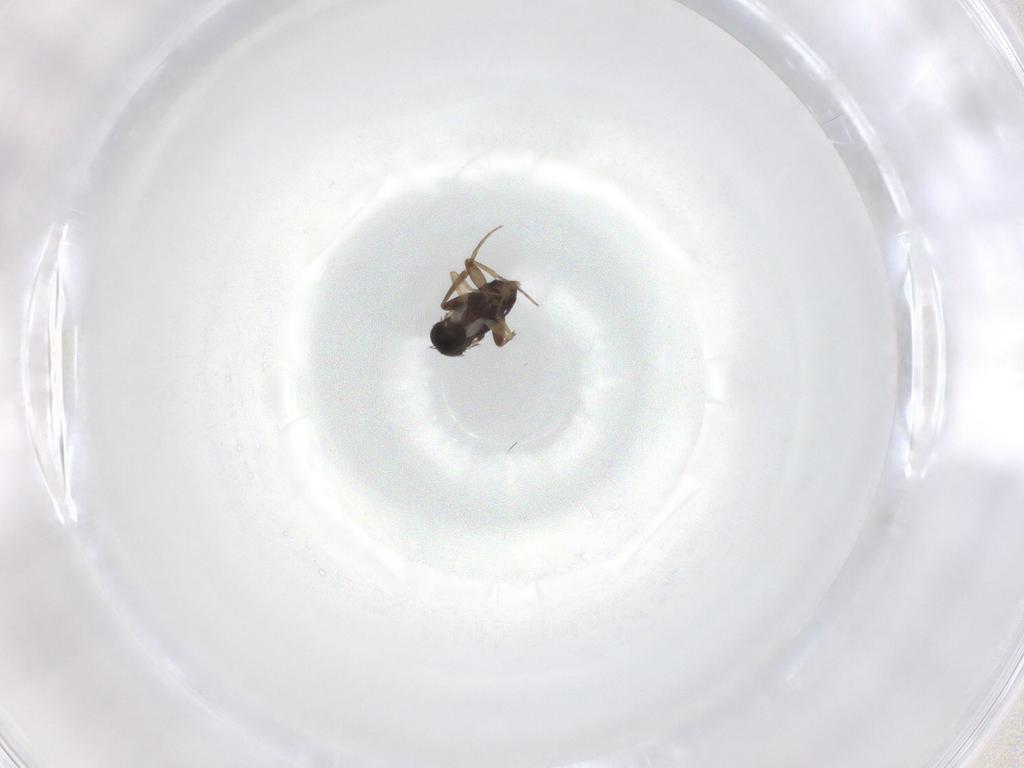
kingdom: Animalia
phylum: Arthropoda
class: Insecta
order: Diptera
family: Phoridae
